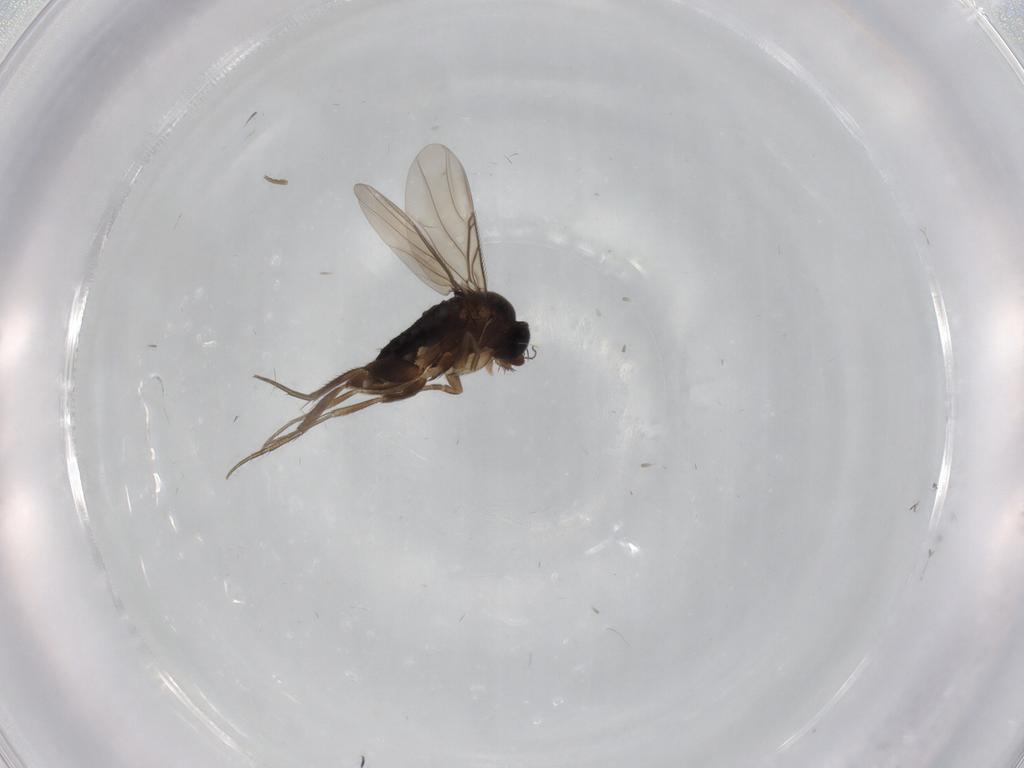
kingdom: Animalia
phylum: Arthropoda
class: Insecta
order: Diptera
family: Phoridae
